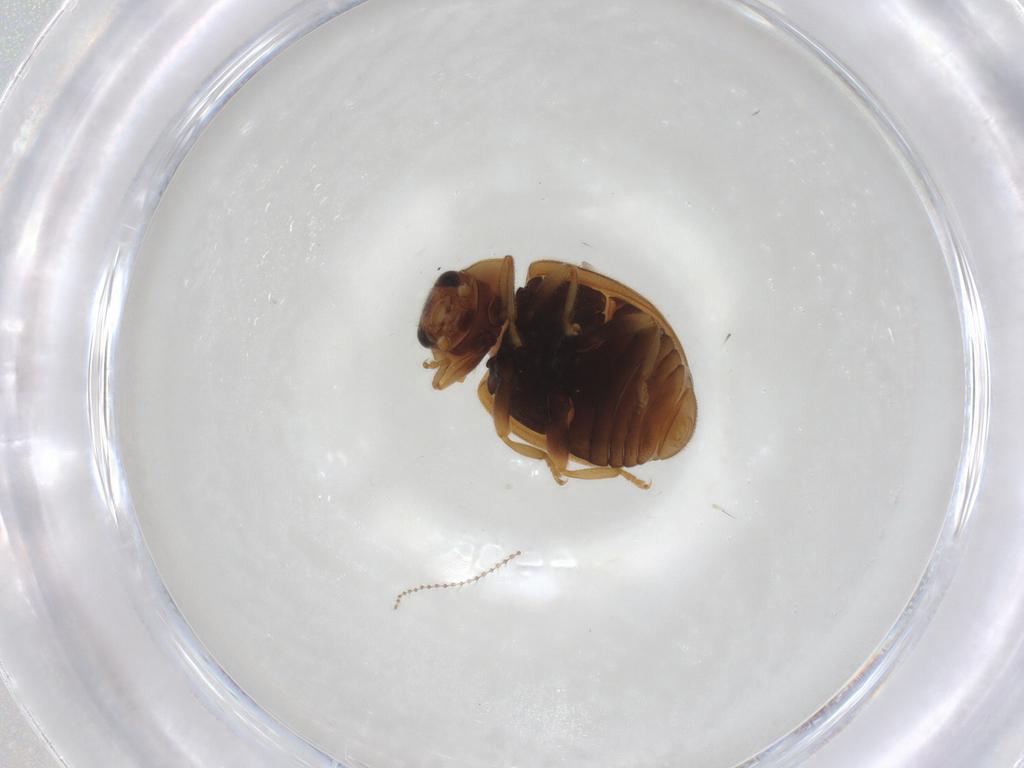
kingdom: Animalia
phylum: Arthropoda
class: Insecta
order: Coleoptera
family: Coccinellidae
